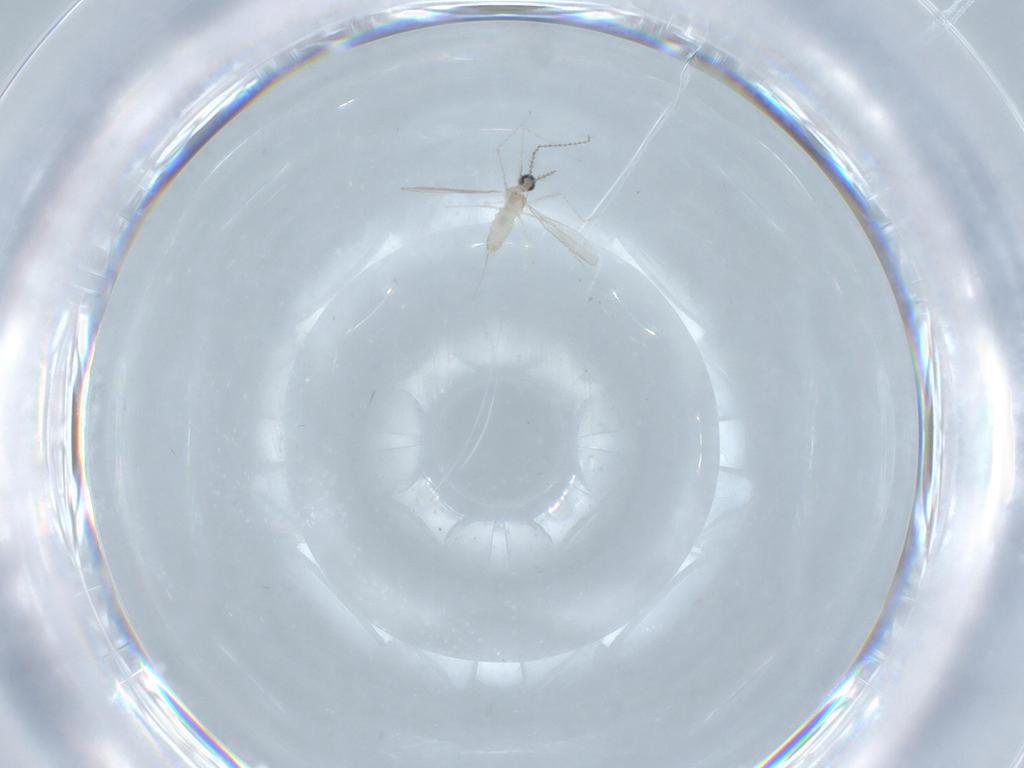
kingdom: Animalia
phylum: Arthropoda
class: Insecta
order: Diptera
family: Cecidomyiidae
